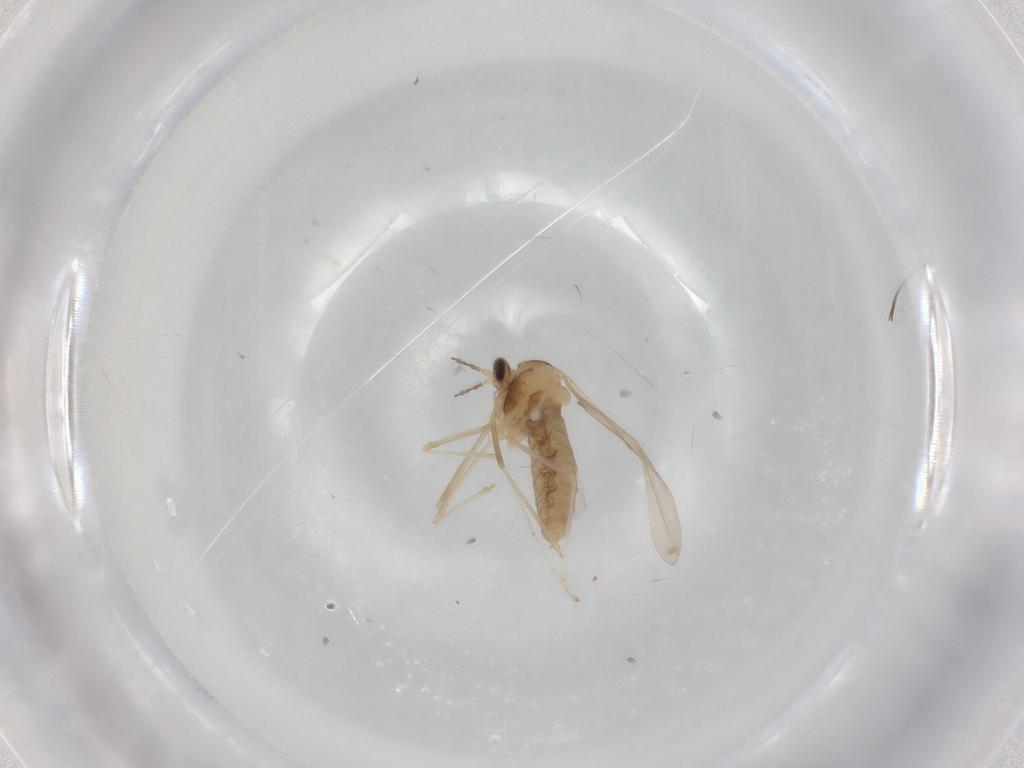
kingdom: Animalia
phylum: Arthropoda
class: Insecta
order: Diptera
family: Cecidomyiidae
